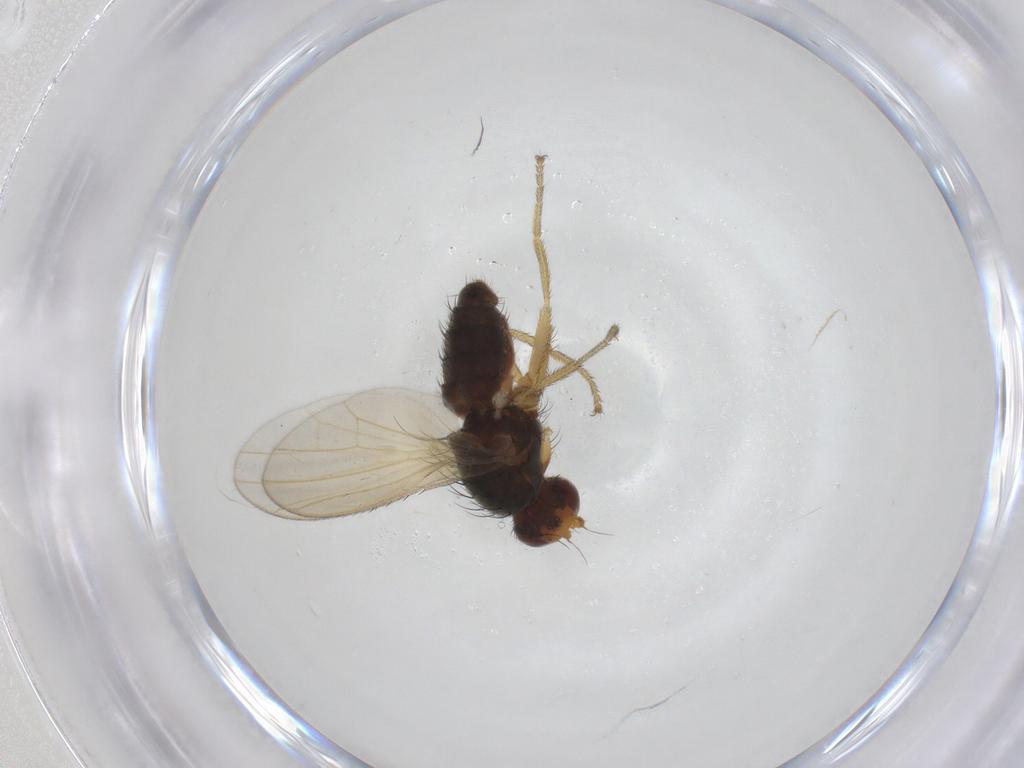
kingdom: Animalia
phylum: Arthropoda
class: Insecta
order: Diptera
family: Heleomyzidae
